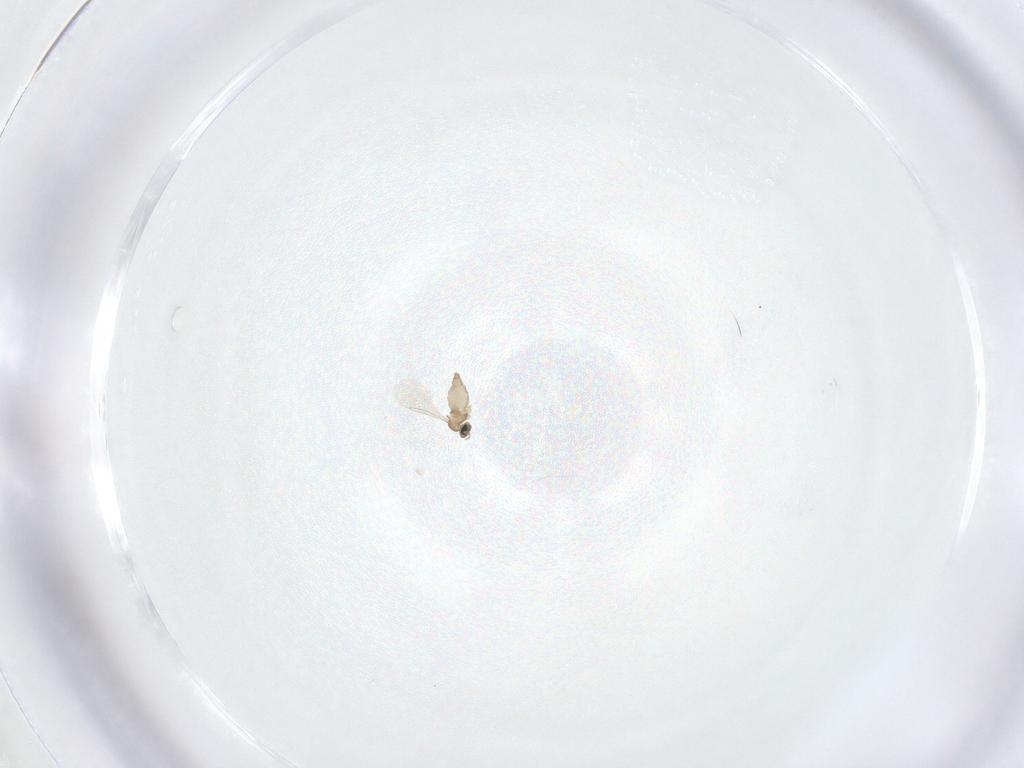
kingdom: Animalia
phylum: Arthropoda
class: Insecta
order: Diptera
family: Cecidomyiidae
